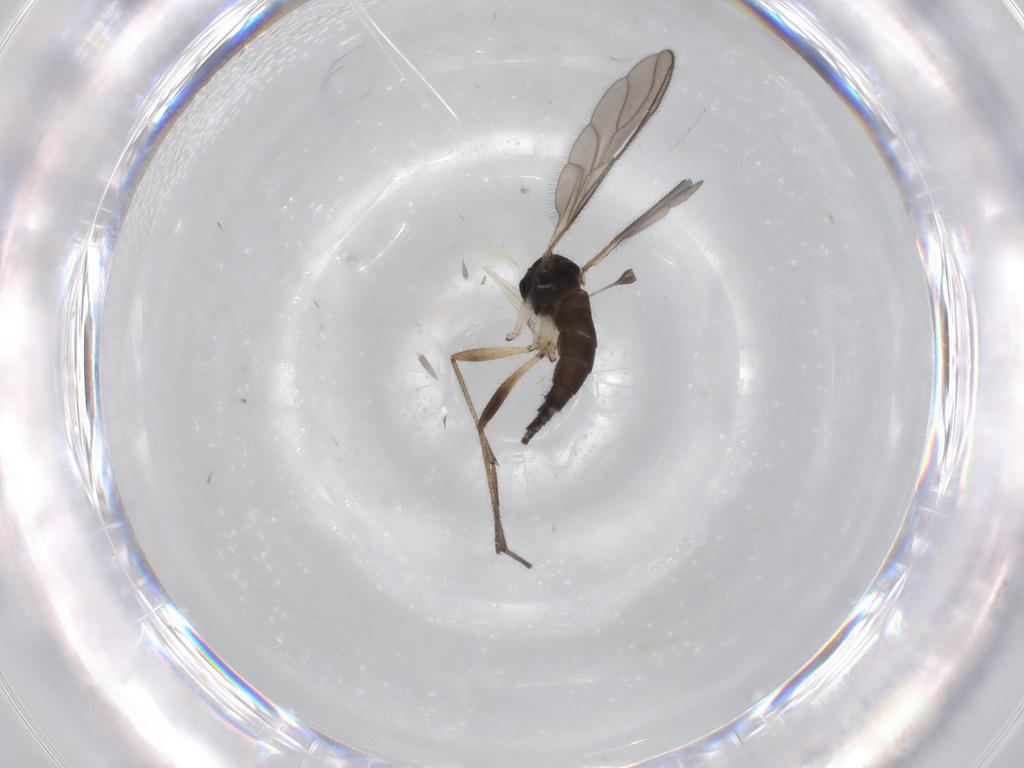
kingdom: Animalia
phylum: Arthropoda
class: Insecta
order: Diptera
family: Sciaridae
